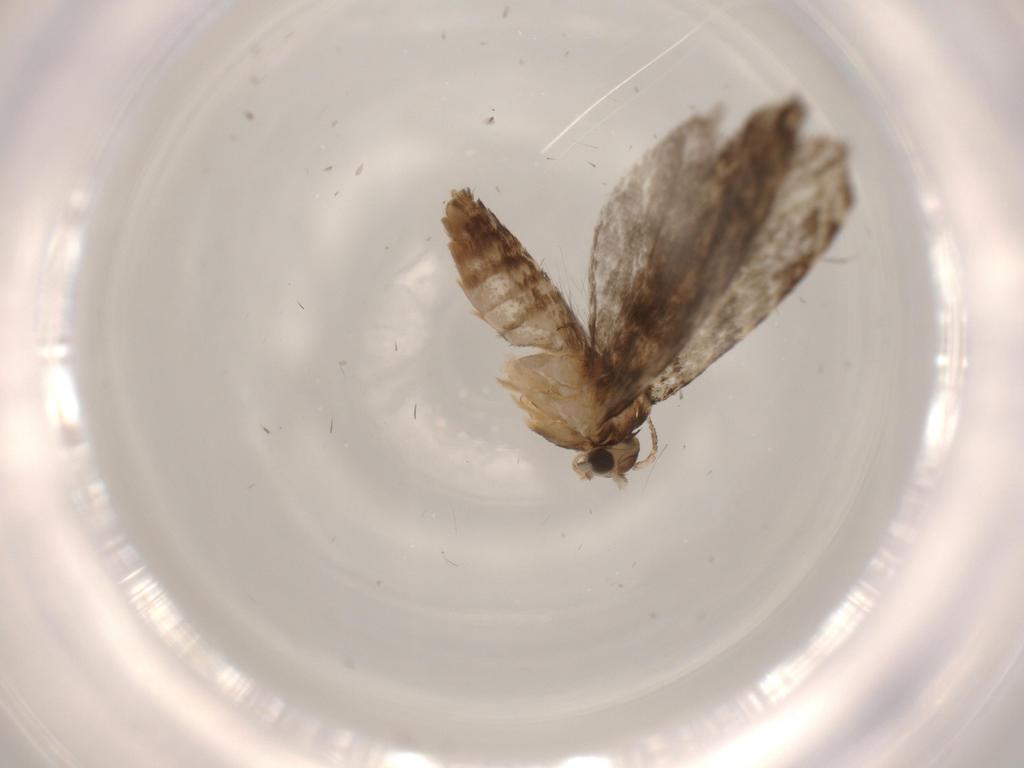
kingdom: Animalia
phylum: Arthropoda
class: Insecta
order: Lepidoptera
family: Tineidae
